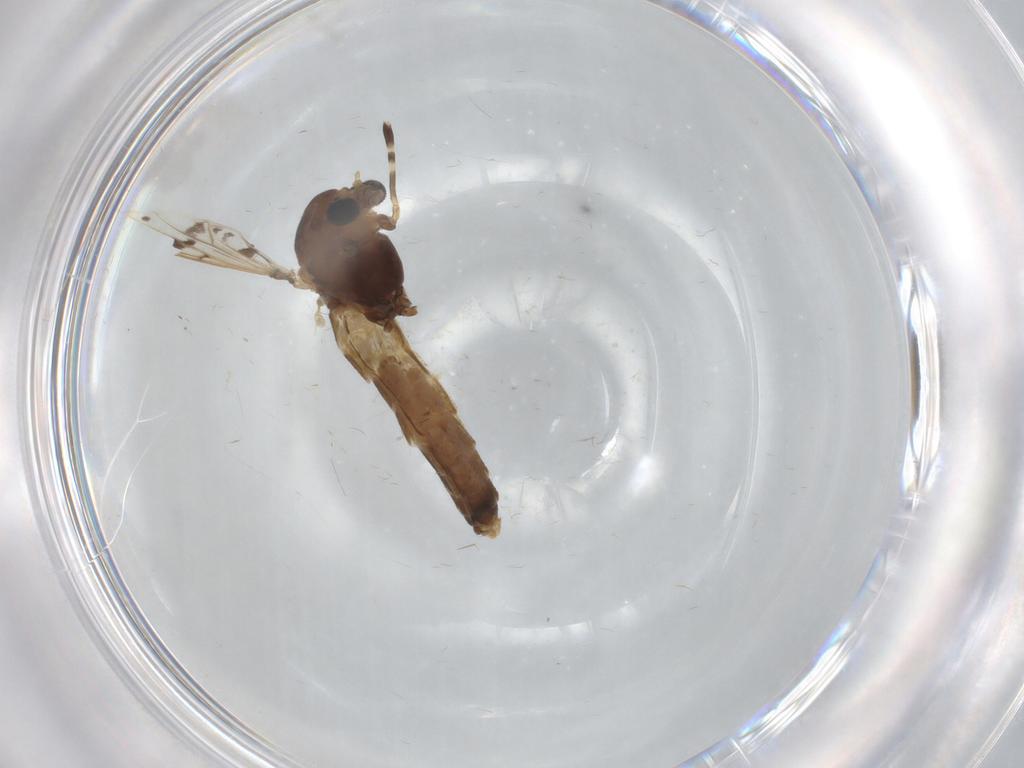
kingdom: Animalia
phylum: Arthropoda
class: Insecta
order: Diptera
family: Chironomidae
